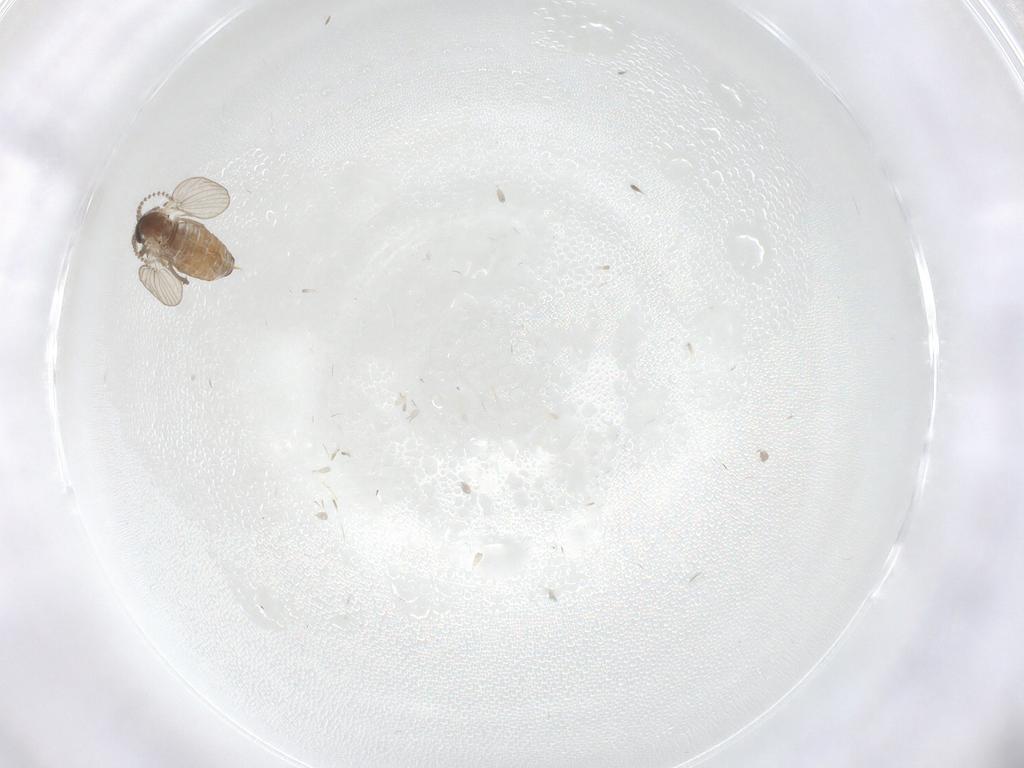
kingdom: Animalia
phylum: Arthropoda
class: Insecta
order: Diptera
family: Psychodidae
